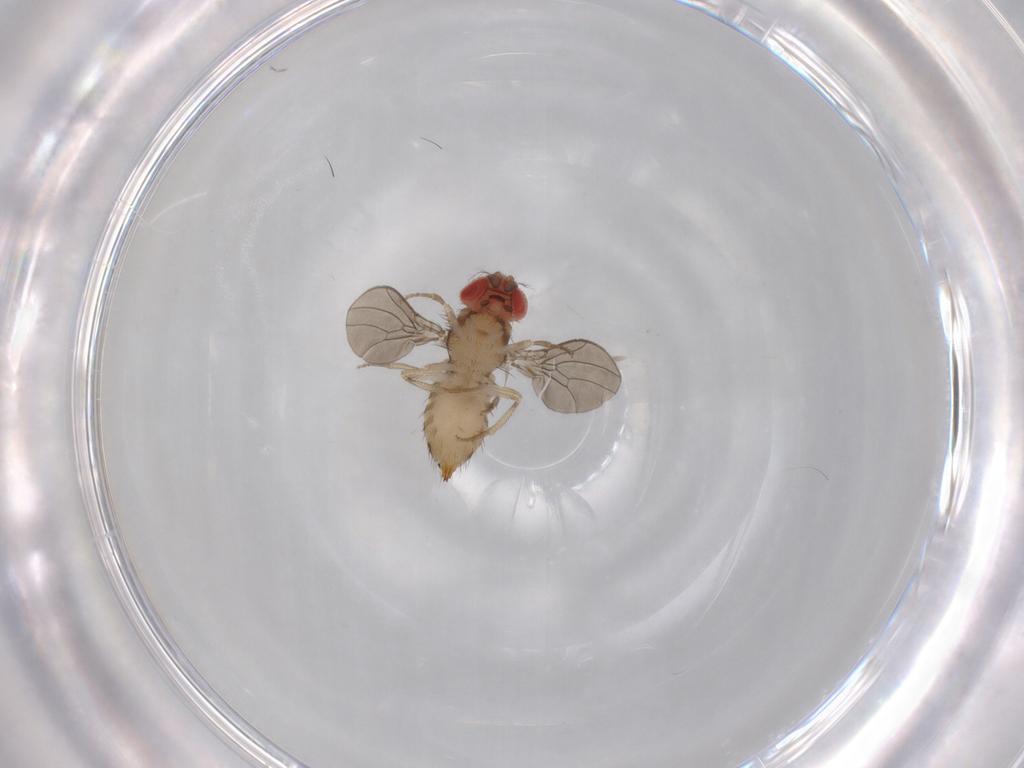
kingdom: Animalia
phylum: Arthropoda
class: Insecta
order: Diptera
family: Drosophilidae
